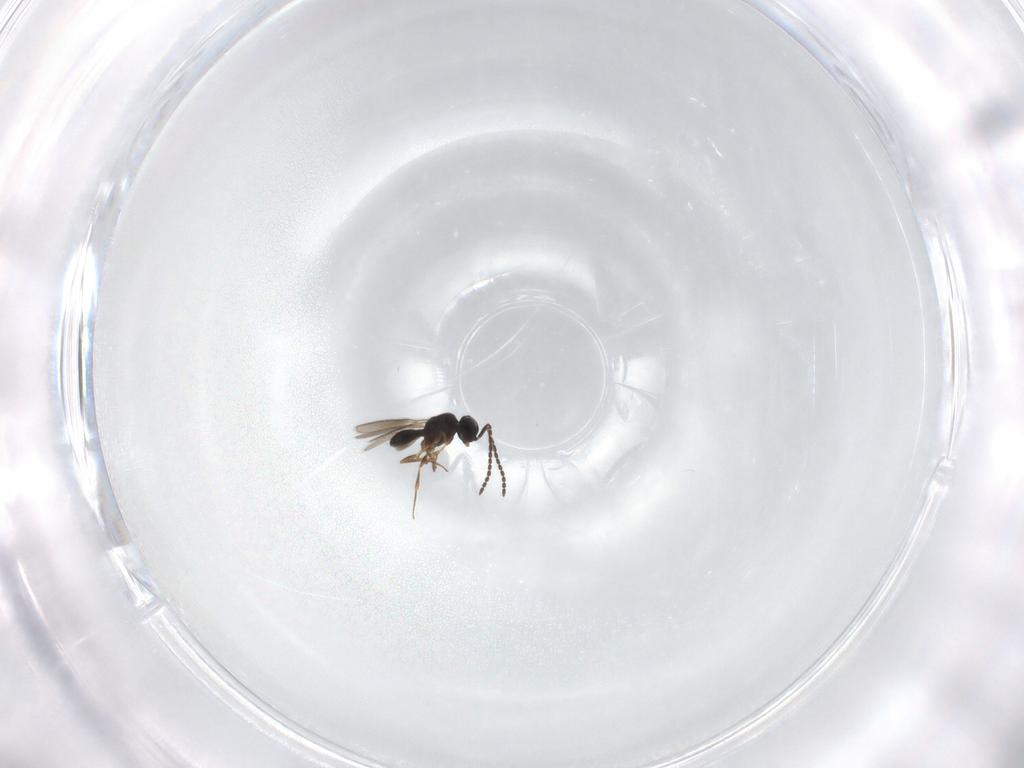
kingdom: Animalia
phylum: Arthropoda
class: Insecta
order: Hymenoptera
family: Scelionidae
